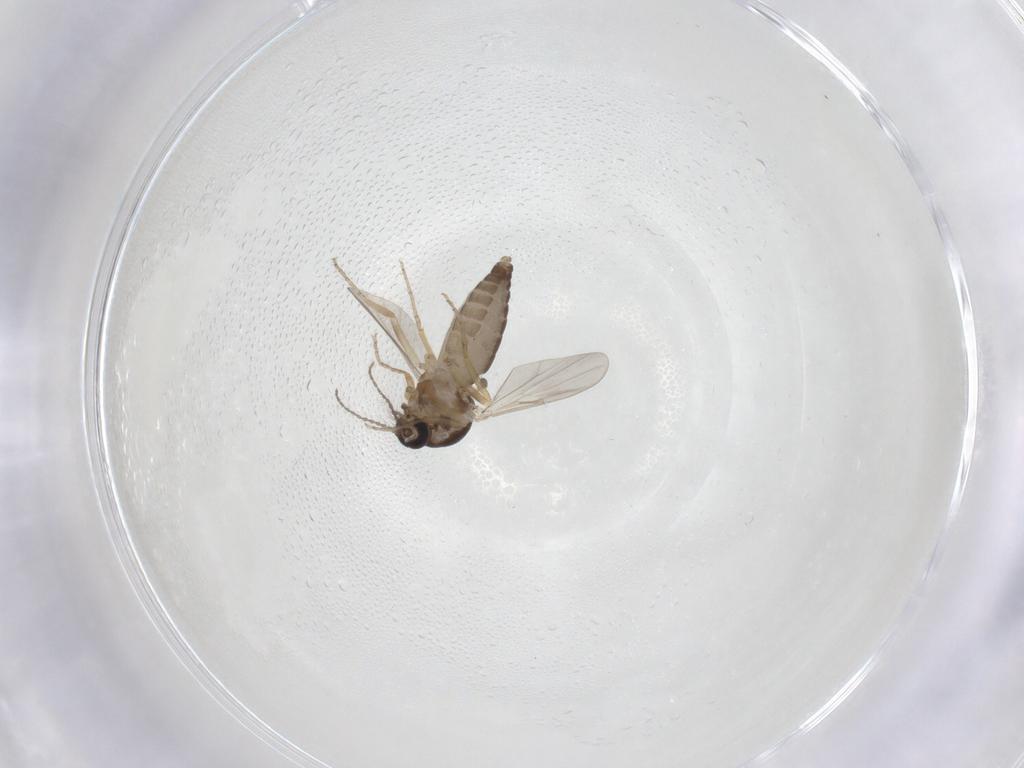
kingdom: Animalia
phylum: Arthropoda
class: Insecta
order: Diptera
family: Ceratopogonidae
